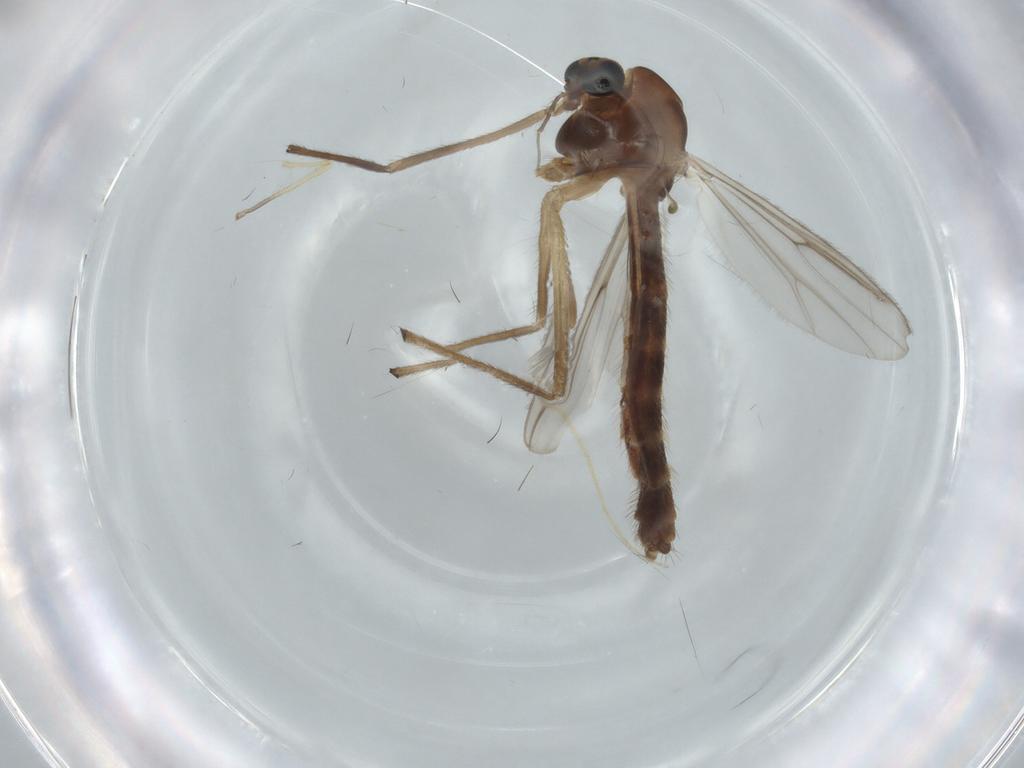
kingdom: Animalia
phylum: Arthropoda
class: Insecta
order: Diptera
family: Chironomidae
